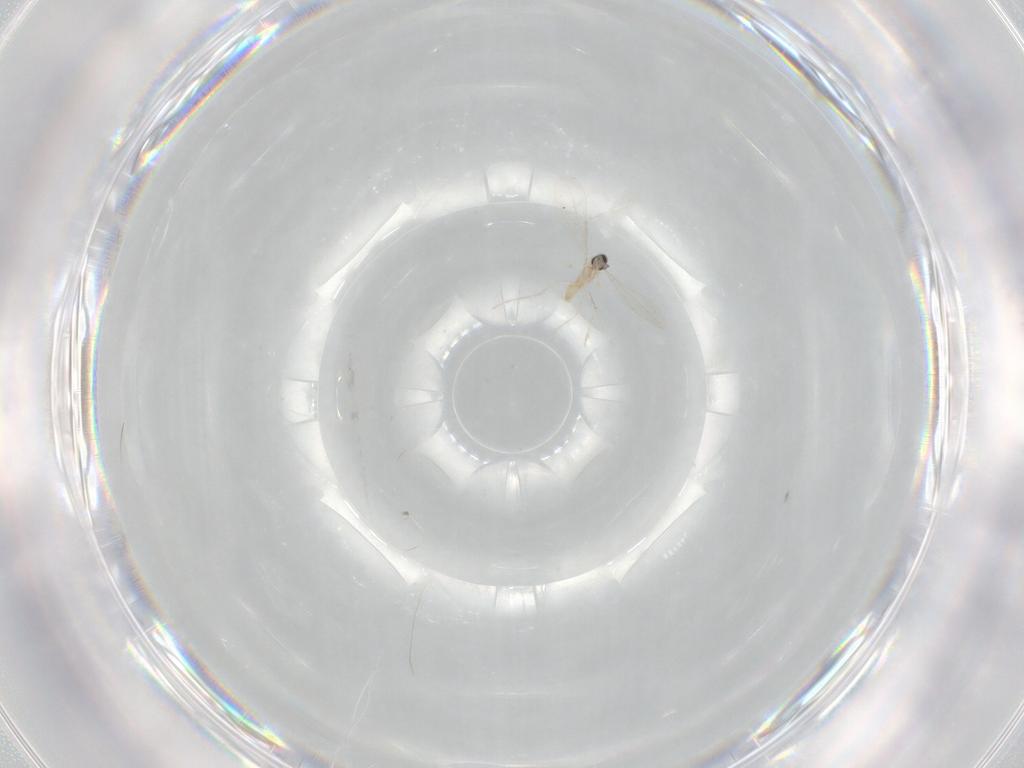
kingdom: Animalia
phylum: Arthropoda
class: Insecta
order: Diptera
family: Cecidomyiidae
